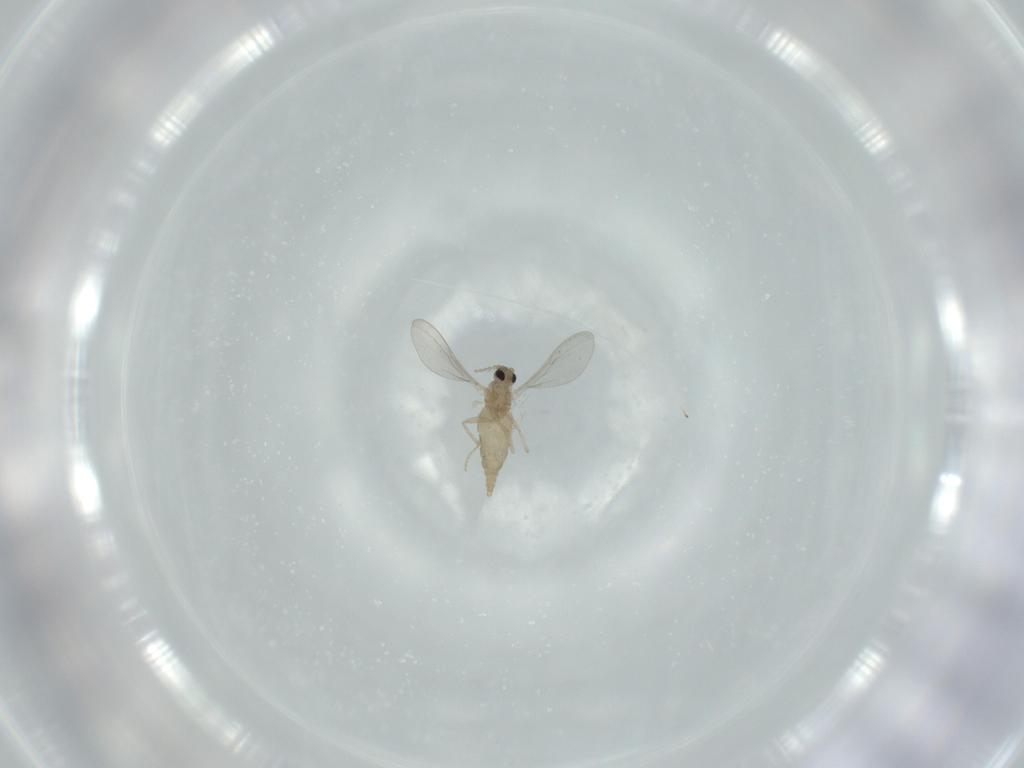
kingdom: Animalia
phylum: Arthropoda
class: Insecta
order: Diptera
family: Cecidomyiidae
